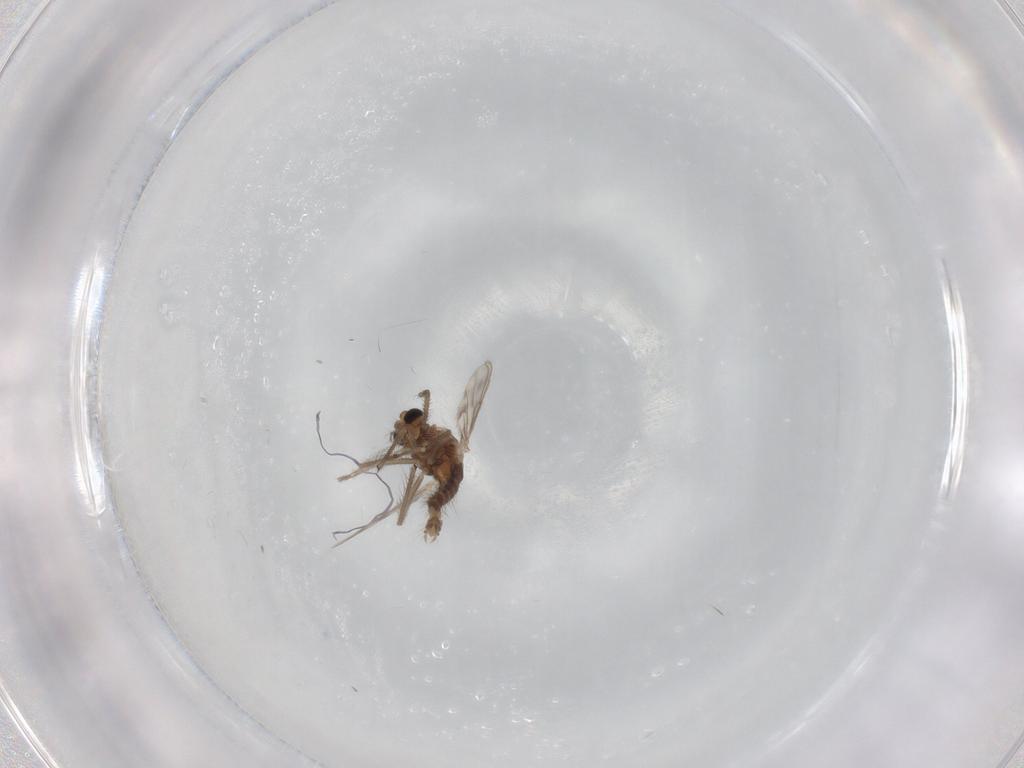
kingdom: Animalia
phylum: Arthropoda
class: Insecta
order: Diptera
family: Chironomidae
